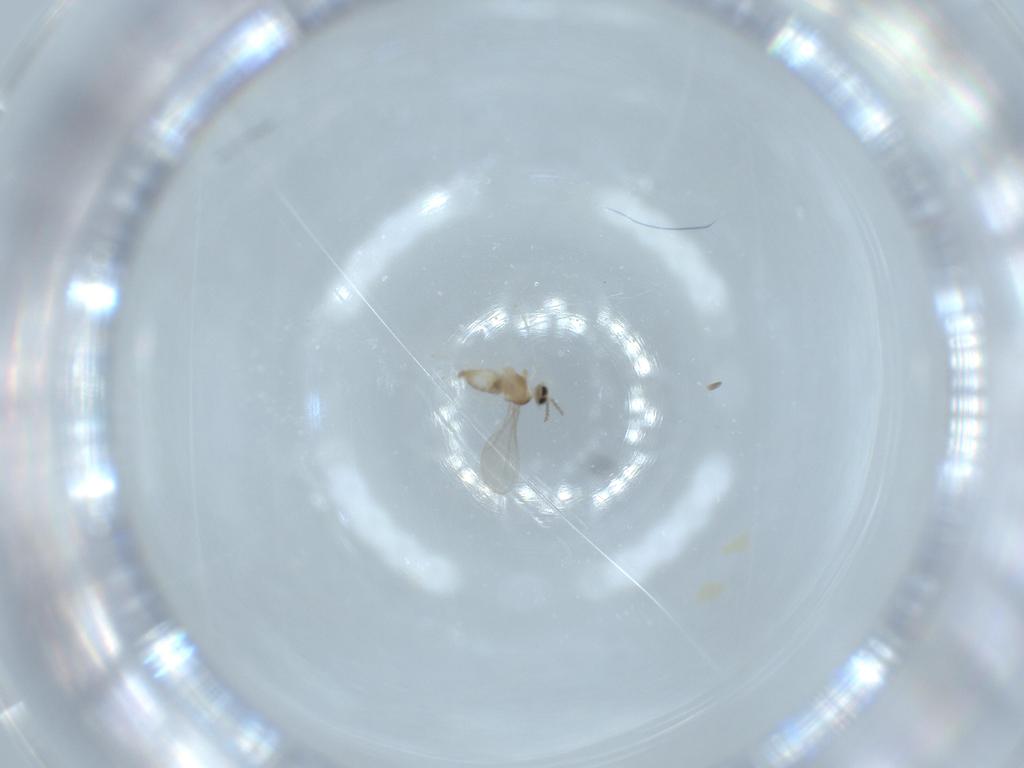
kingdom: Animalia
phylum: Arthropoda
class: Insecta
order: Diptera
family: Cecidomyiidae
